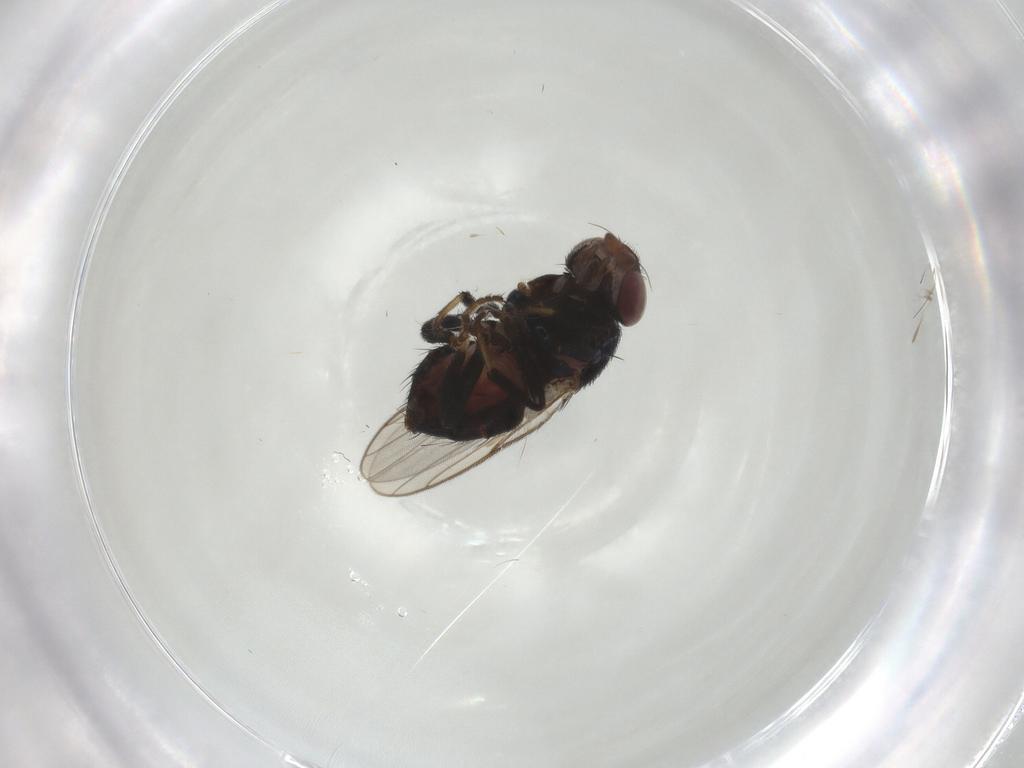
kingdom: Animalia
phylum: Arthropoda
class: Insecta
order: Diptera
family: Chloropidae
